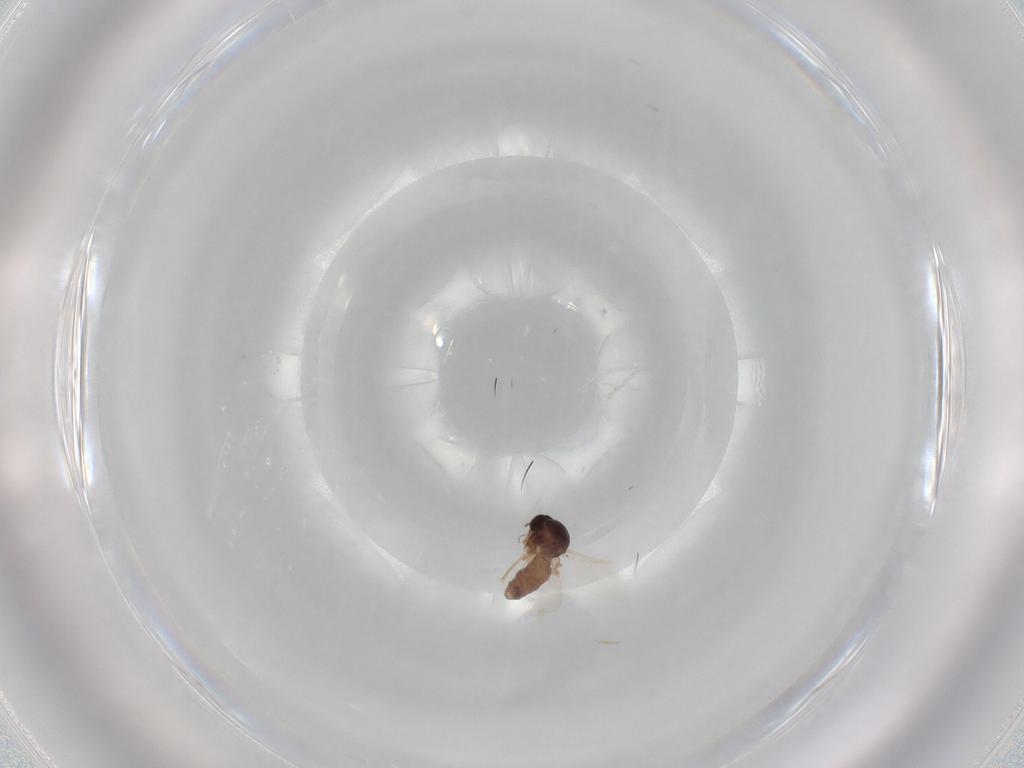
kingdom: Animalia
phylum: Arthropoda
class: Insecta
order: Diptera
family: Ceratopogonidae
